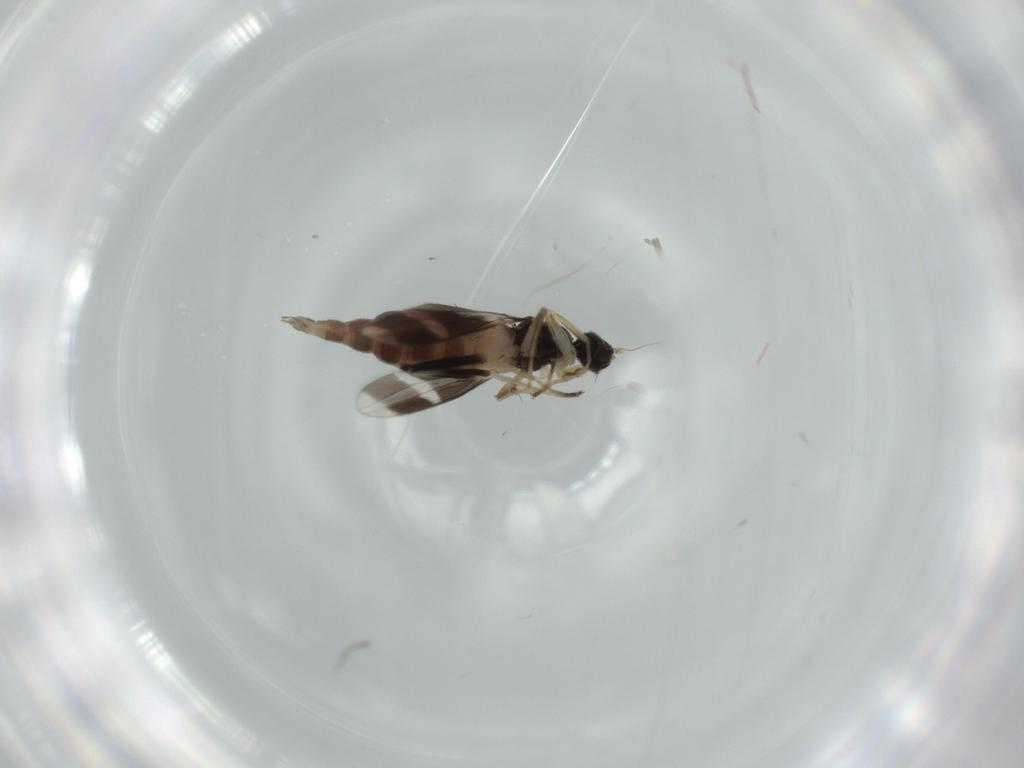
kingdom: Animalia
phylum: Arthropoda
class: Insecta
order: Diptera
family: Hybotidae
